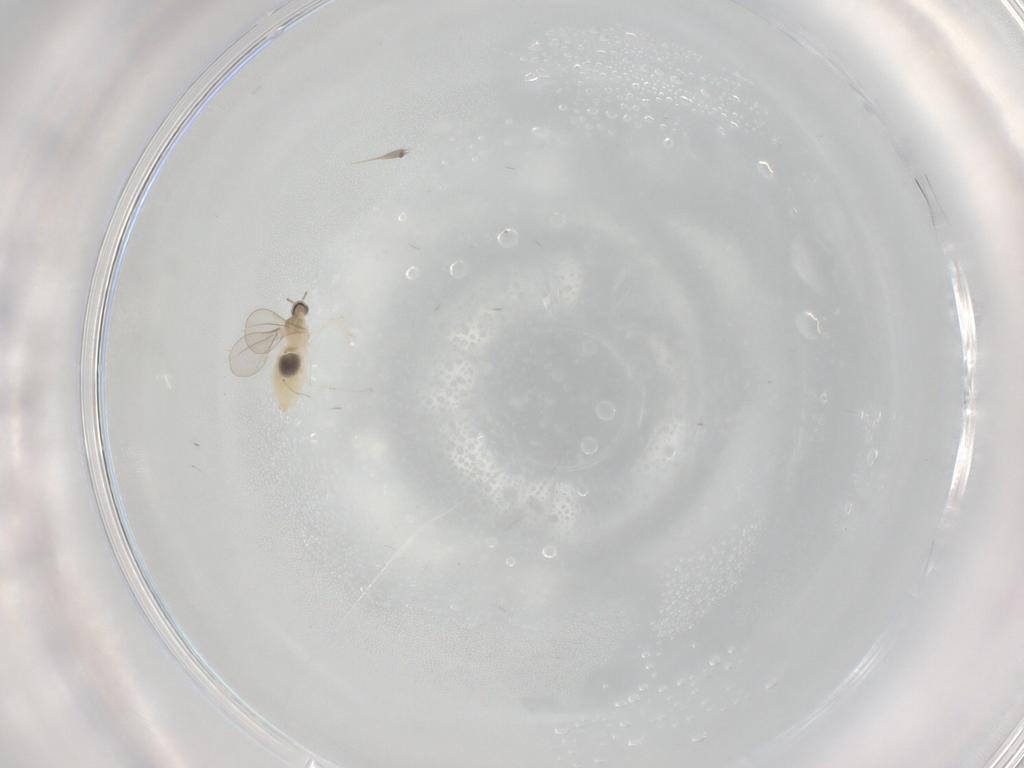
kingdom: Animalia
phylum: Arthropoda
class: Insecta
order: Diptera
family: Cecidomyiidae
